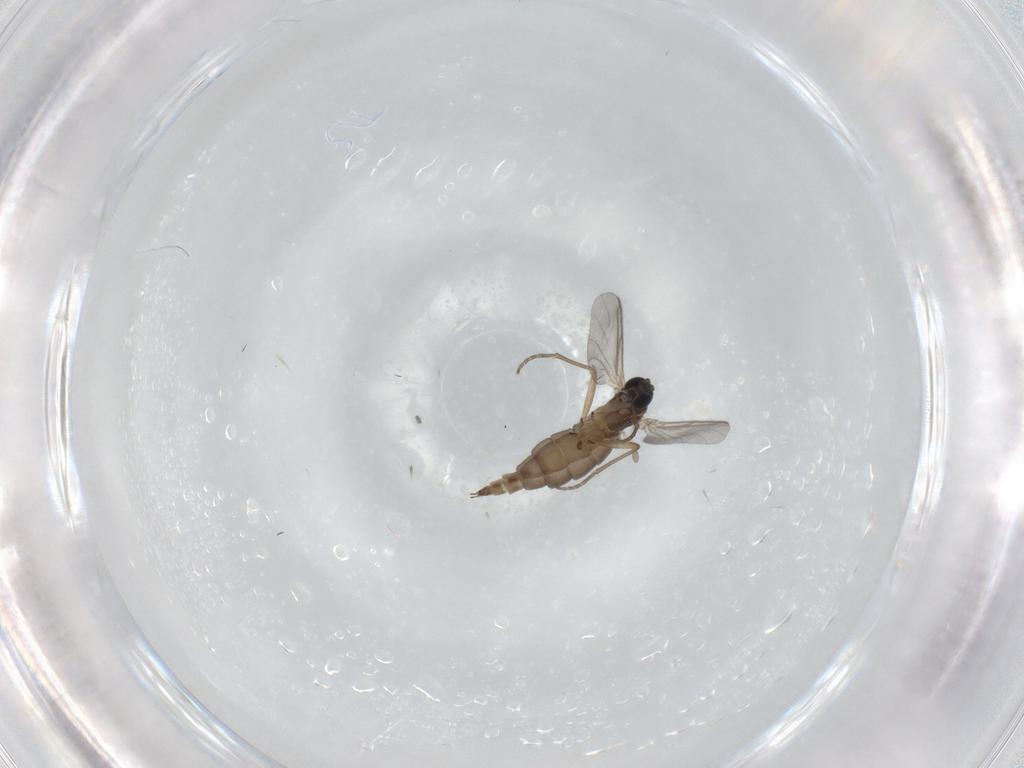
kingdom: Animalia
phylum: Arthropoda
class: Insecta
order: Diptera
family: Sciaridae
